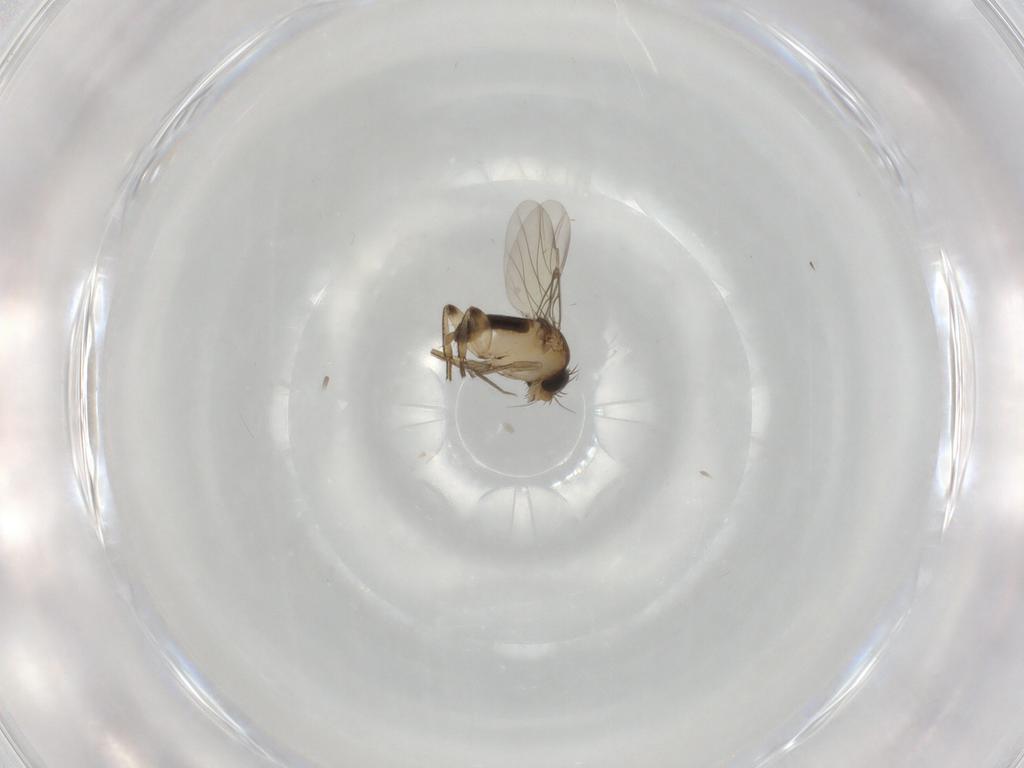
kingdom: Animalia
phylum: Arthropoda
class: Insecta
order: Diptera
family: Phoridae
